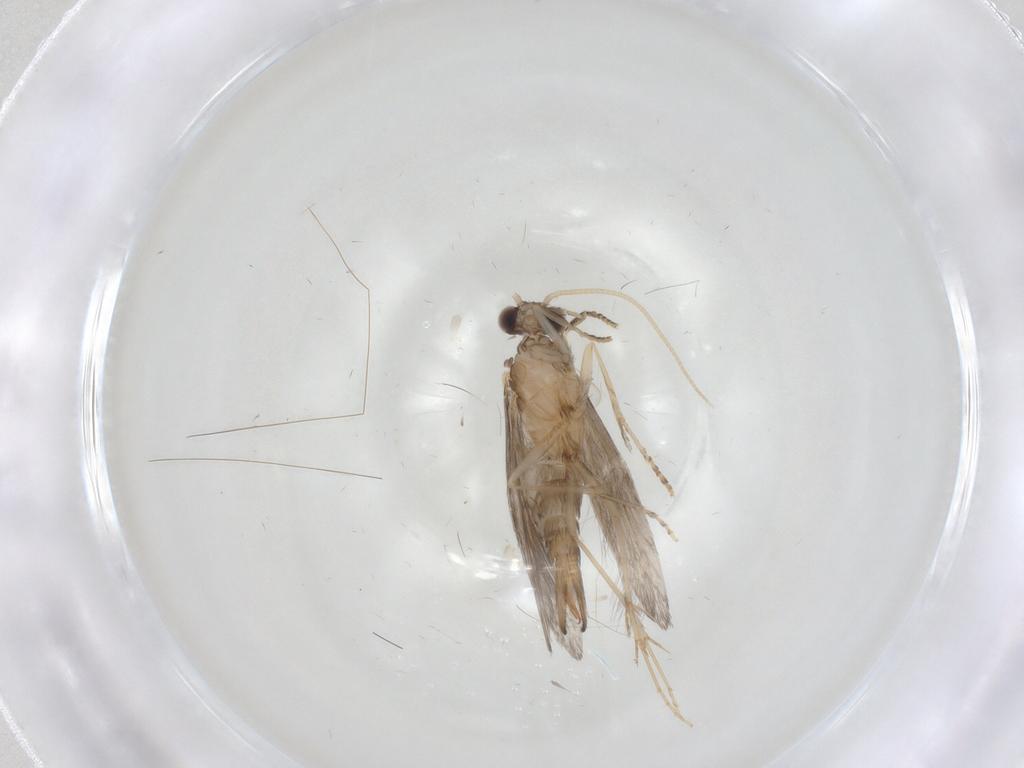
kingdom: Animalia
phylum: Arthropoda
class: Insecta
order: Trichoptera
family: Hydroptilidae
